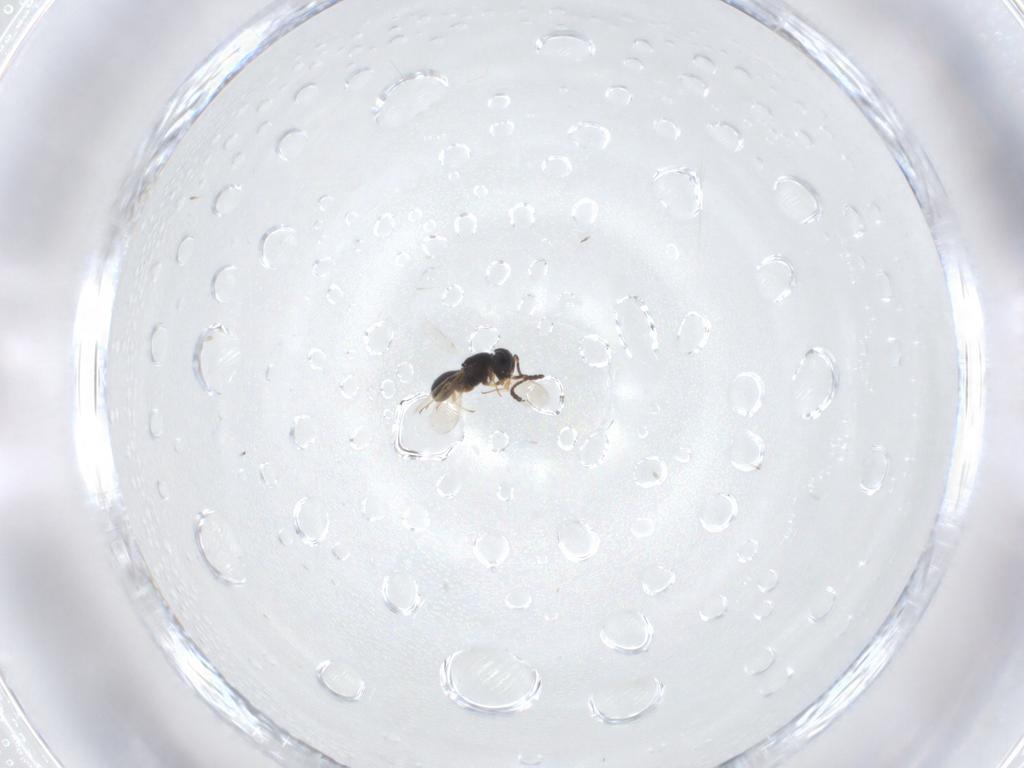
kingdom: Animalia
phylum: Arthropoda
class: Insecta
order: Hymenoptera
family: Scelionidae
